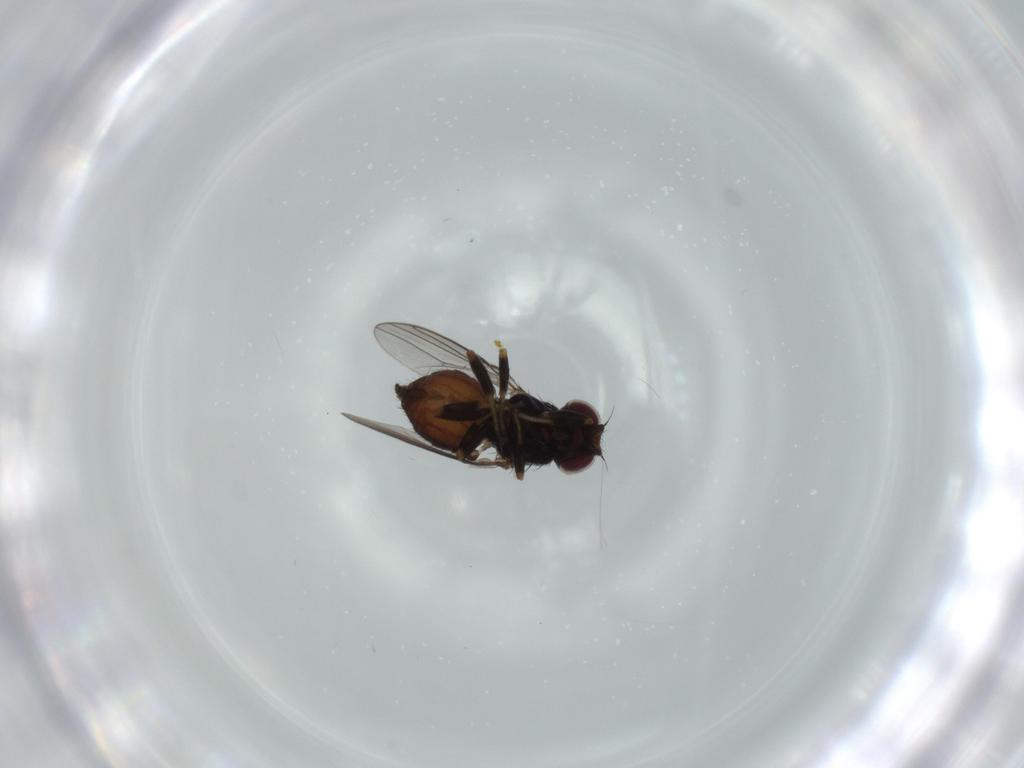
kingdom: Animalia
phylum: Arthropoda
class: Insecta
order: Diptera
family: Chloropidae
